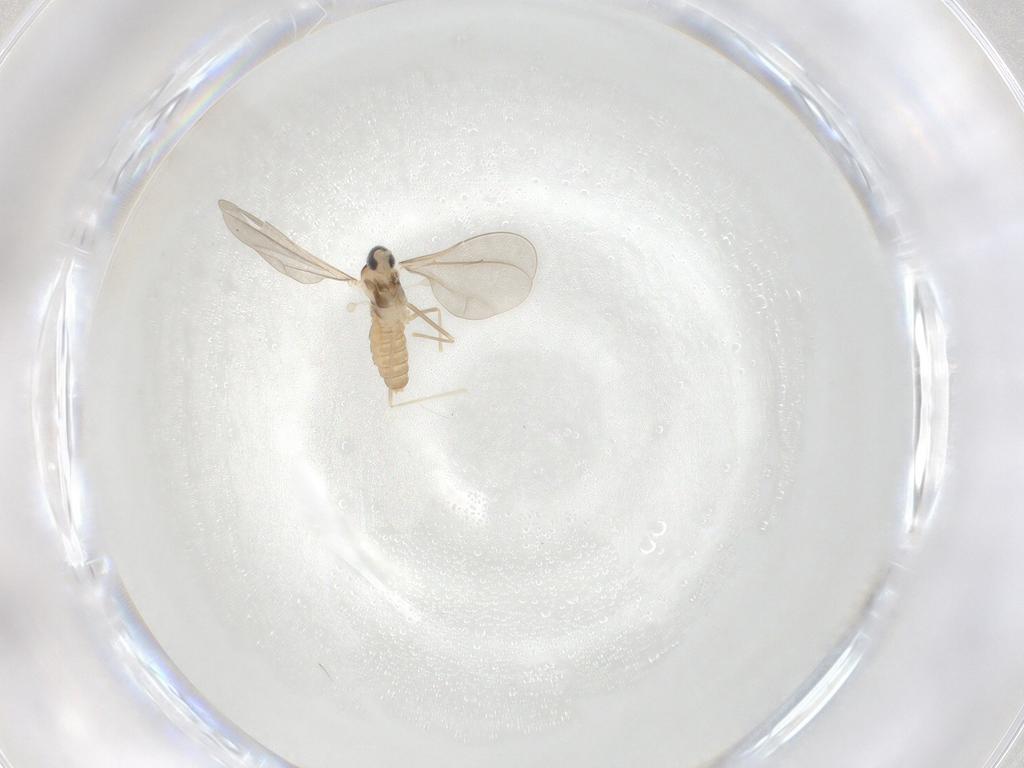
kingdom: Animalia
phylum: Arthropoda
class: Insecta
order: Diptera
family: Cecidomyiidae
